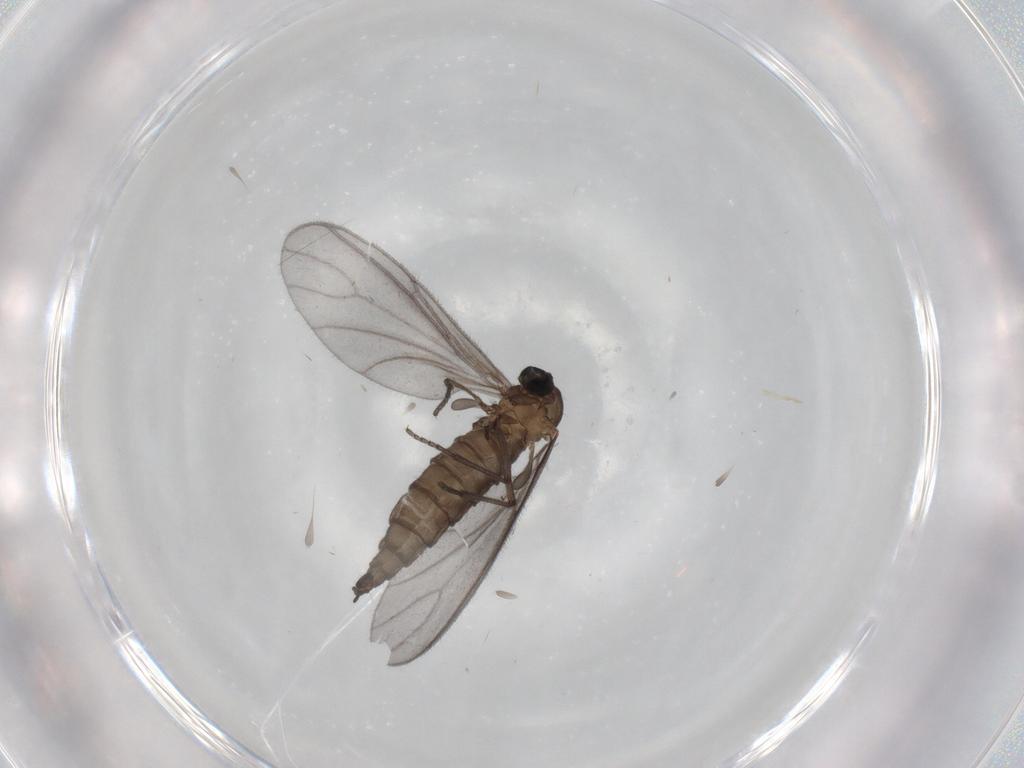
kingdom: Animalia
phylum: Arthropoda
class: Insecta
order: Diptera
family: Sciaridae
